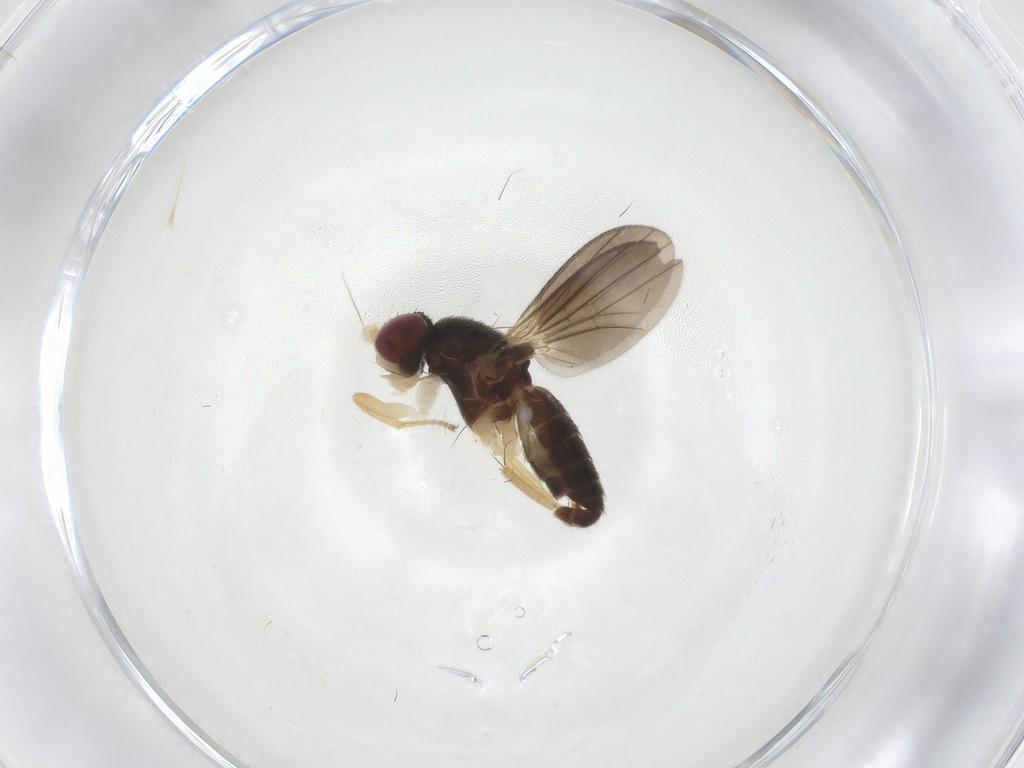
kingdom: Animalia
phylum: Arthropoda
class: Insecta
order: Diptera
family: Clusiidae
